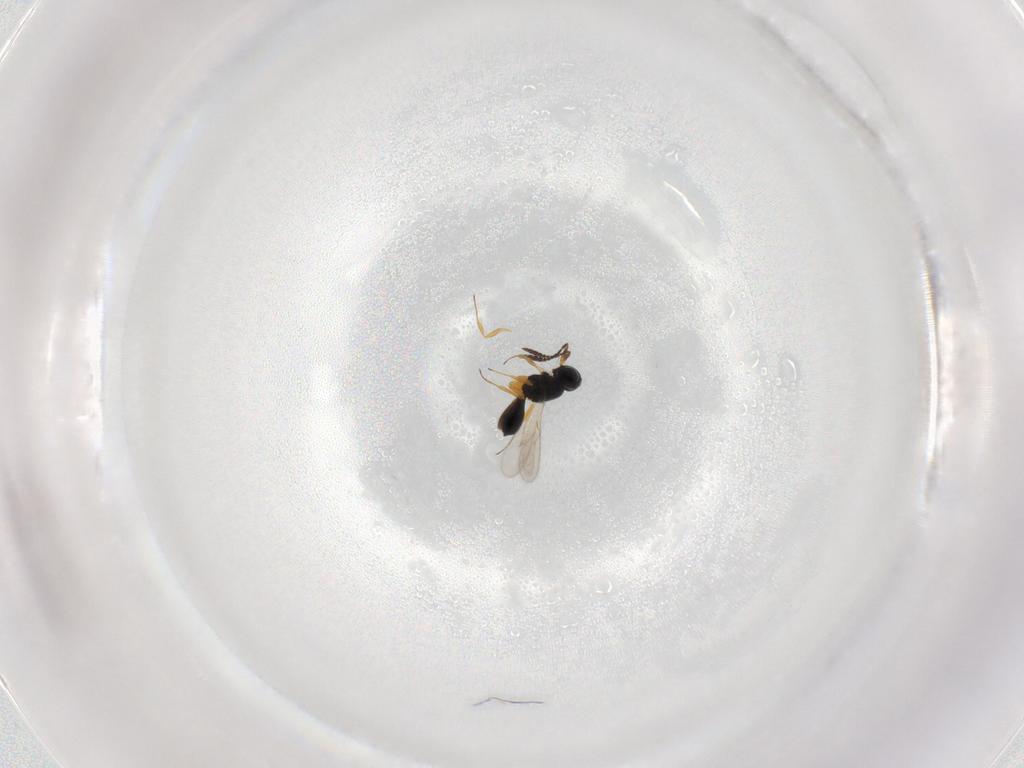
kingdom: Animalia
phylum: Arthropoda
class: Insecta
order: Hymenoptera
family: Scelionidae
